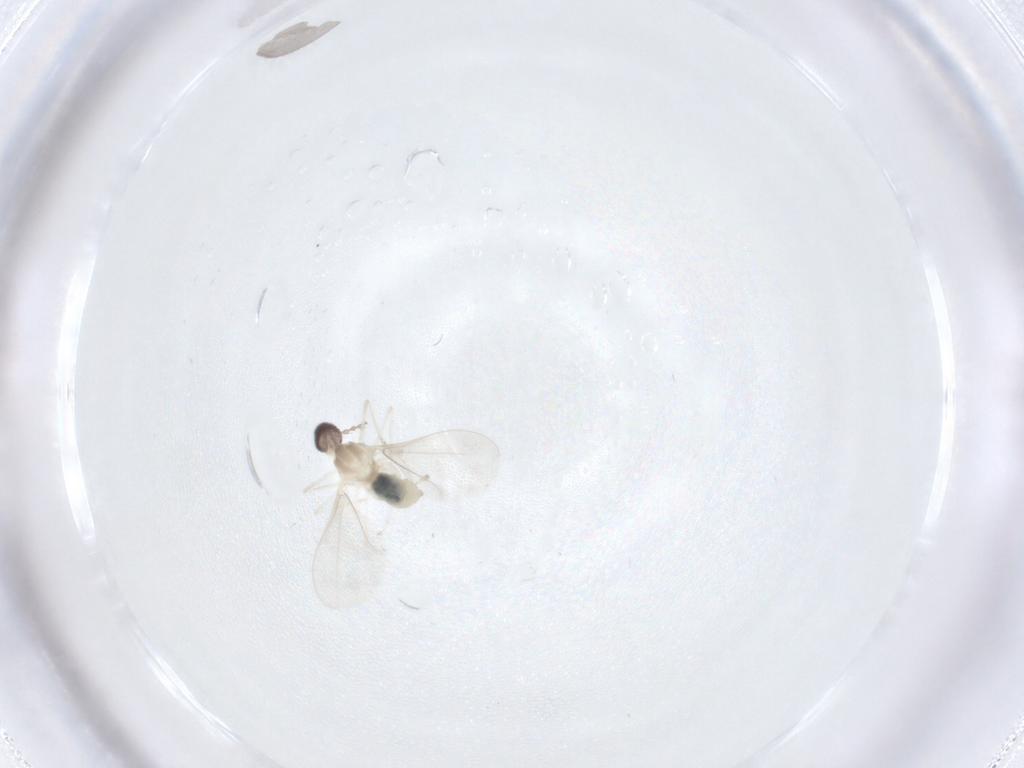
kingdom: Animalia
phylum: Arthropoda
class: Insecta
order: Diptera
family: Cecidomyiidae
